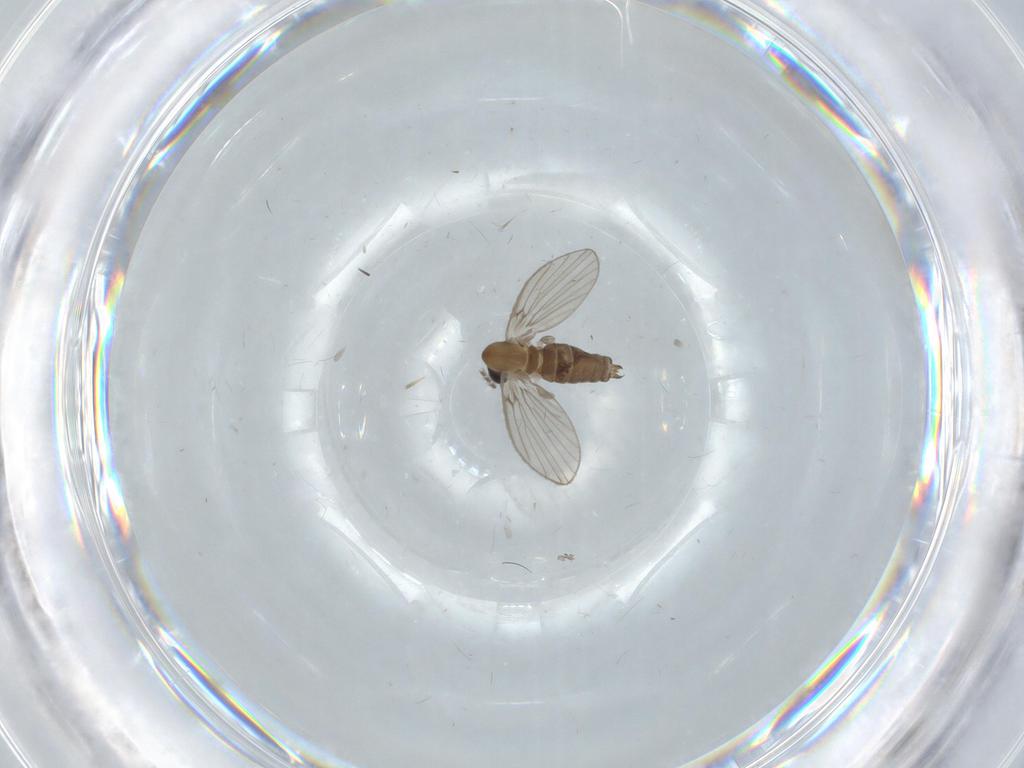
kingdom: Animalia
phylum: Arthropoda
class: Insecta
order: Diptera
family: Psychodidae
